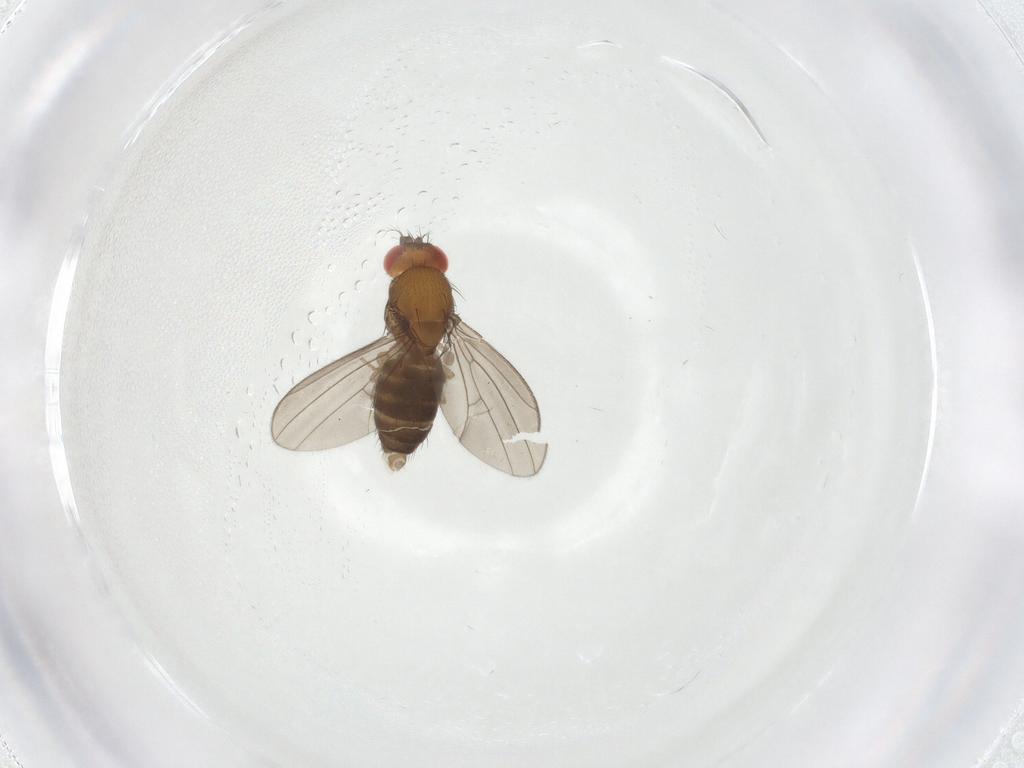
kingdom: Animalia
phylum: Arthropoda
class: Insecta
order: Diptera
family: Drosophilidae
